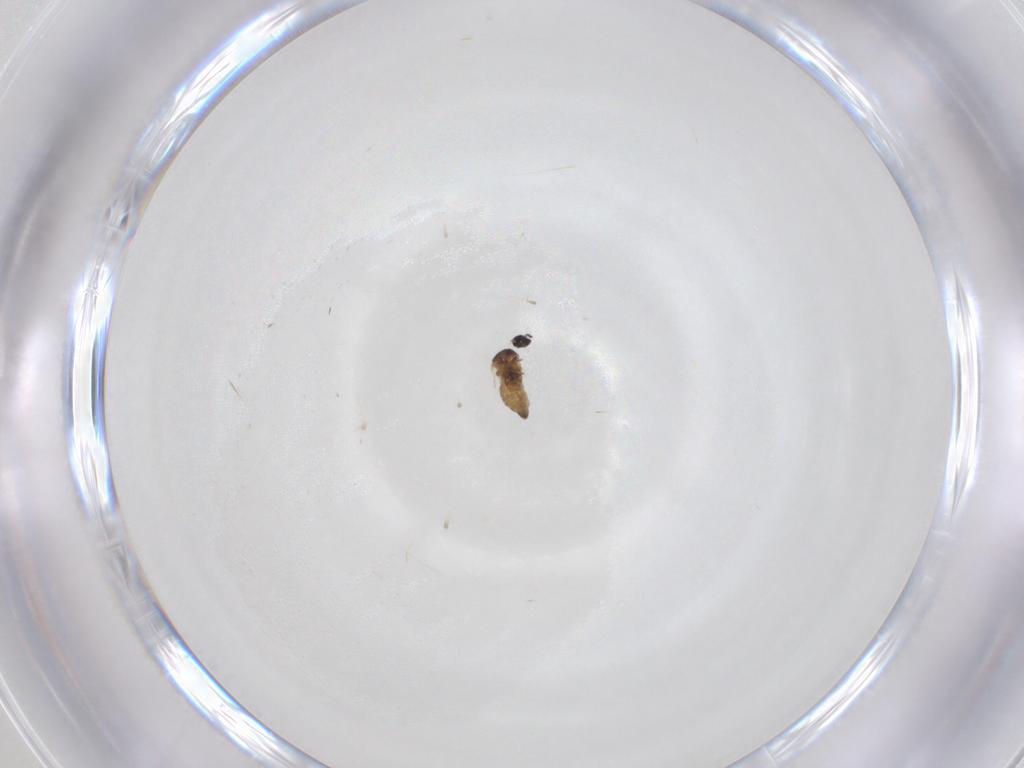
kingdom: Animalia
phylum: Arthropoda
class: Insecta
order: Diptera
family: Cecidomyiidae
